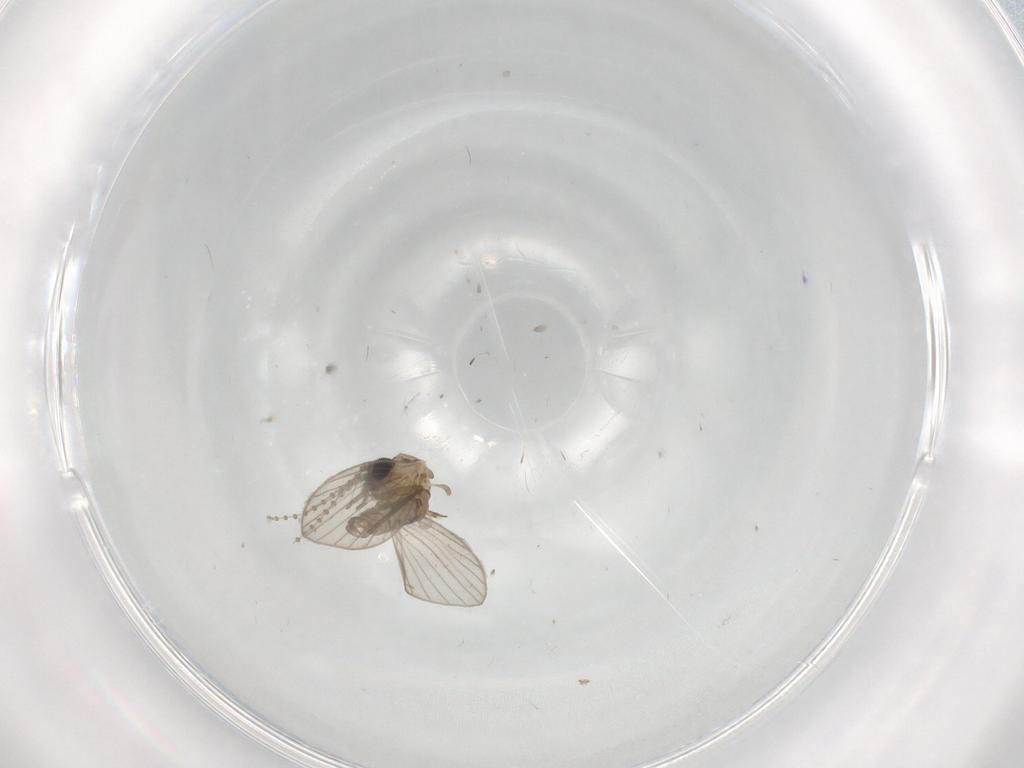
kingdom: Animalia
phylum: Arthropoda
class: Insecta
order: Diptera
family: Psychodidae
